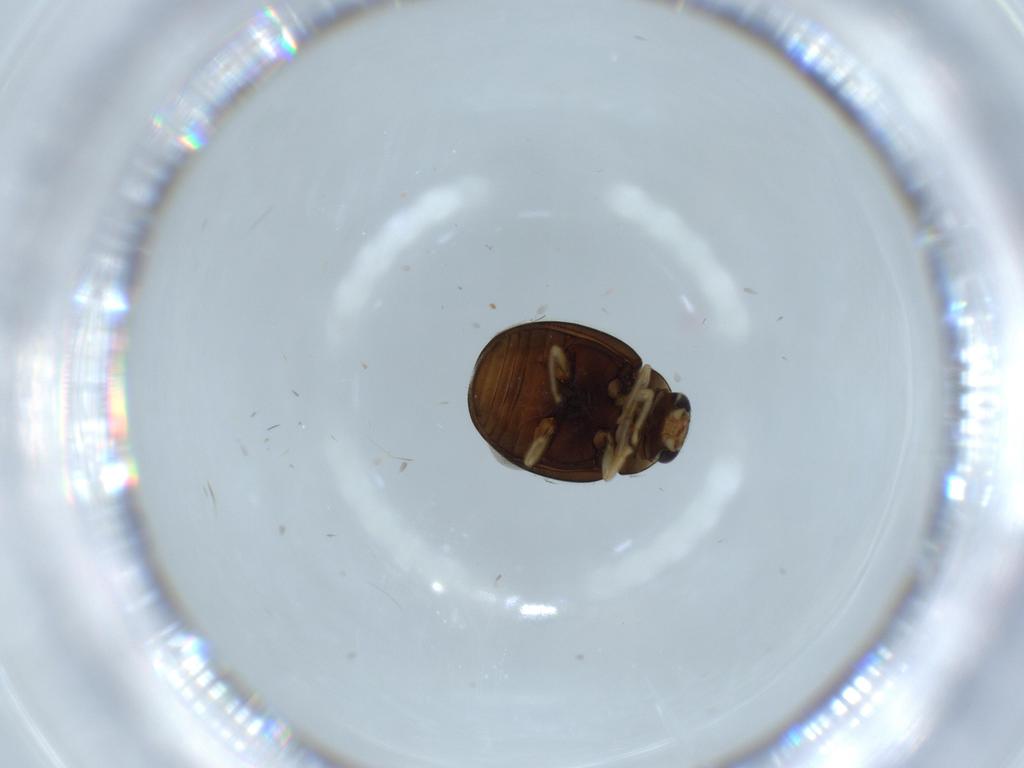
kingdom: Animalia
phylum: Arthropoda
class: Insecta
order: Coleoptera
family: Coccinellidae
